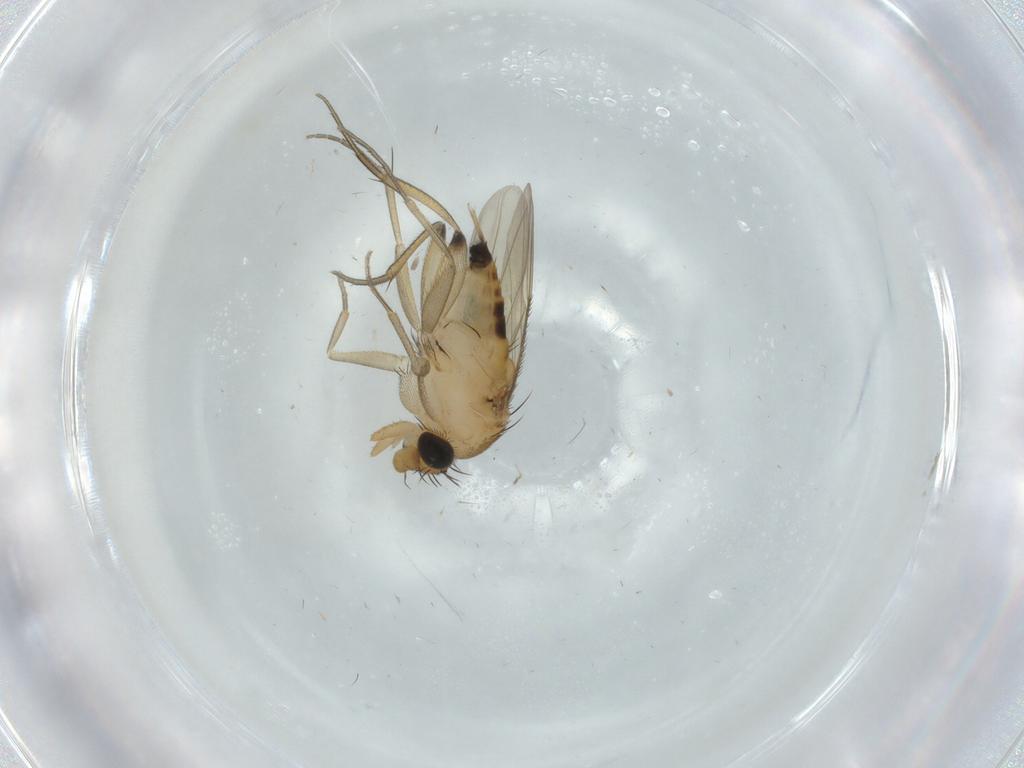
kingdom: Animalia
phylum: Arthropoda
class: Insecta
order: Diptera
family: Phoridae
